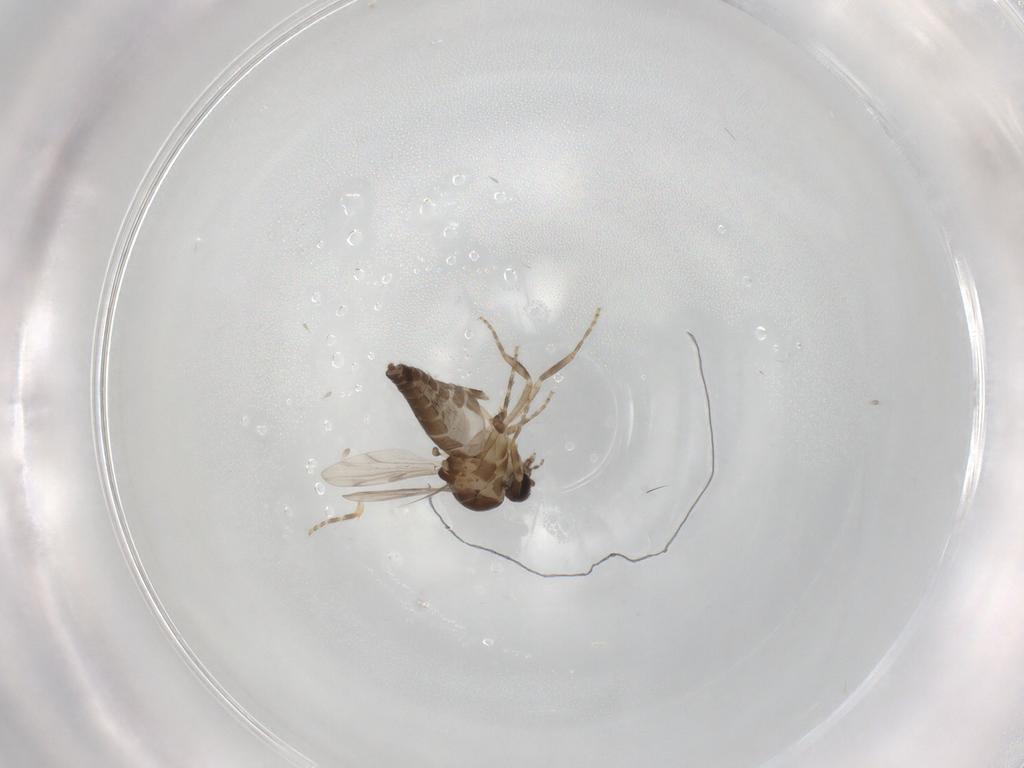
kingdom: Animalia
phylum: Arthropoda
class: Insecta
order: Diptera
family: Ceratopogonidae
